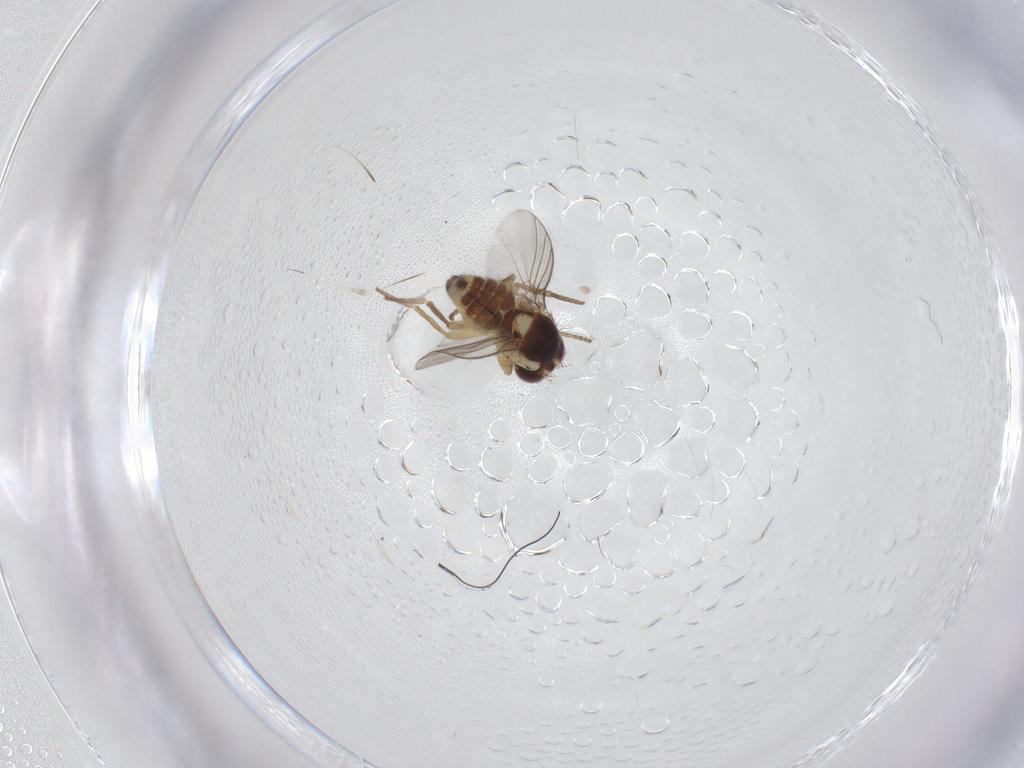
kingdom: Animalia
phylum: Arthropoda
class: Insecta
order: Diptera
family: Agromyzidae
